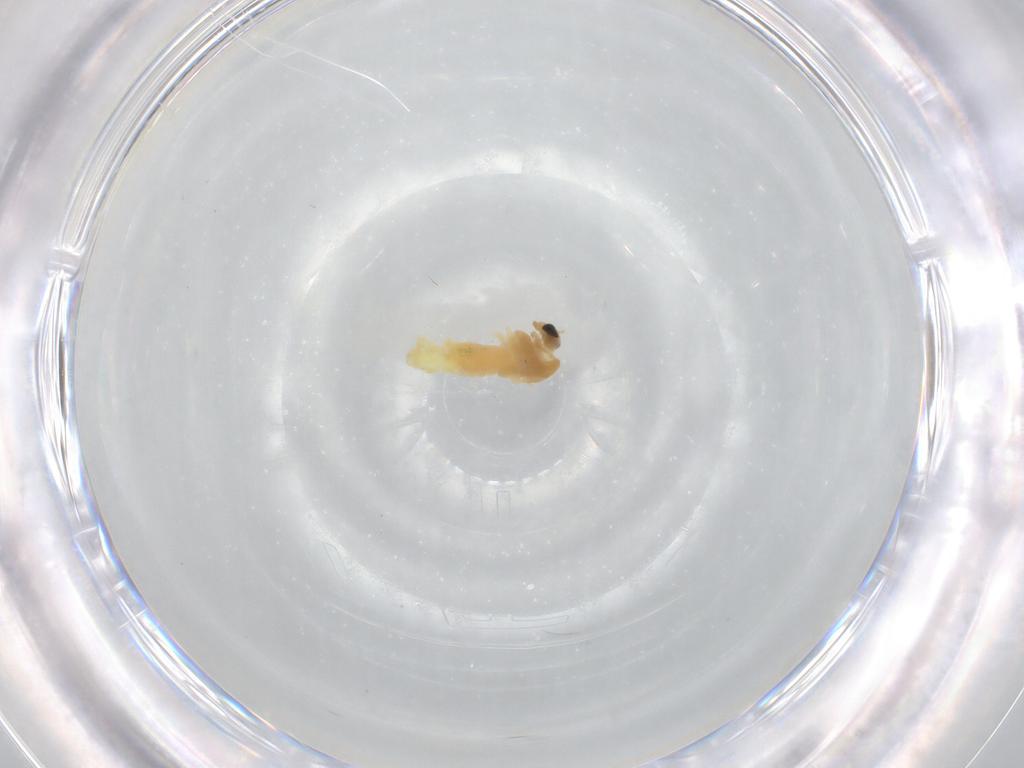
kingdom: Animalia
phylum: Arthropoda
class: Insecta
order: Diptera
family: Chironomidae
